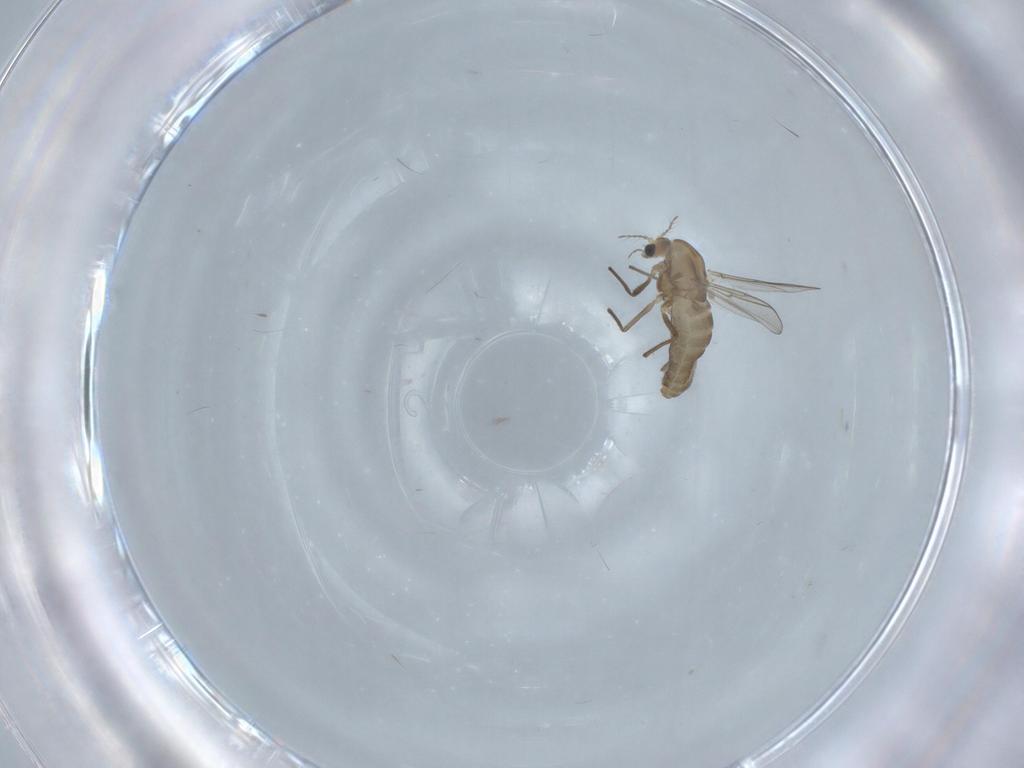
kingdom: Animalia
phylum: Arthropoda
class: Insecta
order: Diptera
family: Chironomidae
